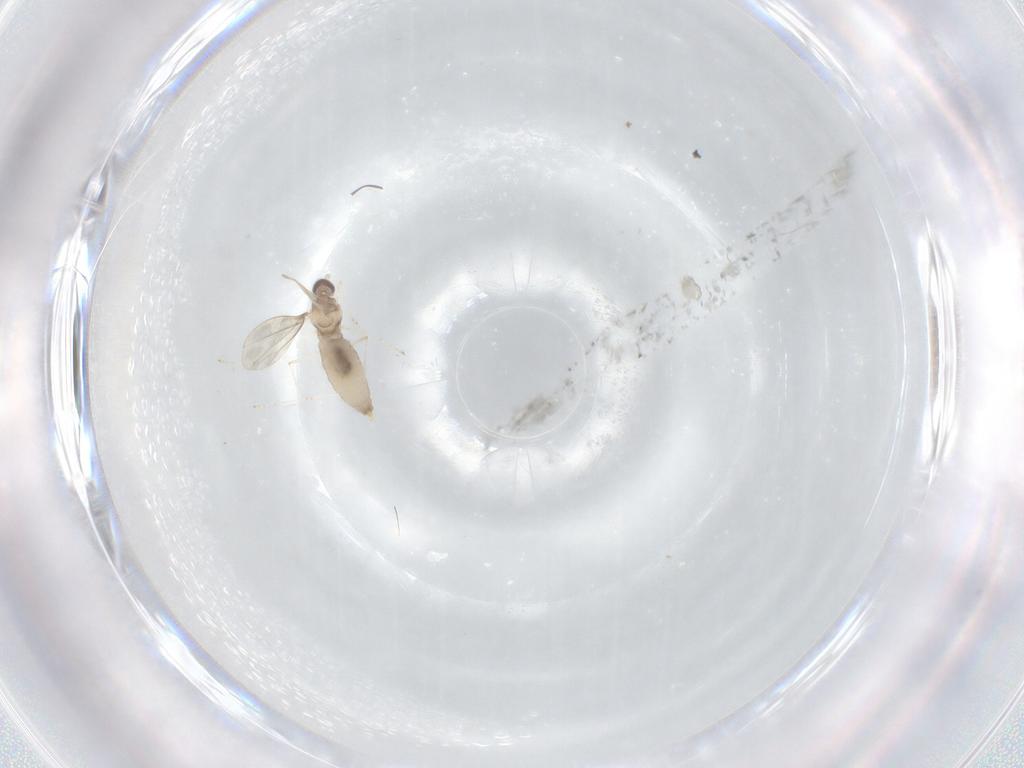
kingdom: Animalia
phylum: Arthropoda
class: Insecta
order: Diptera
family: Cecidomyiidae
